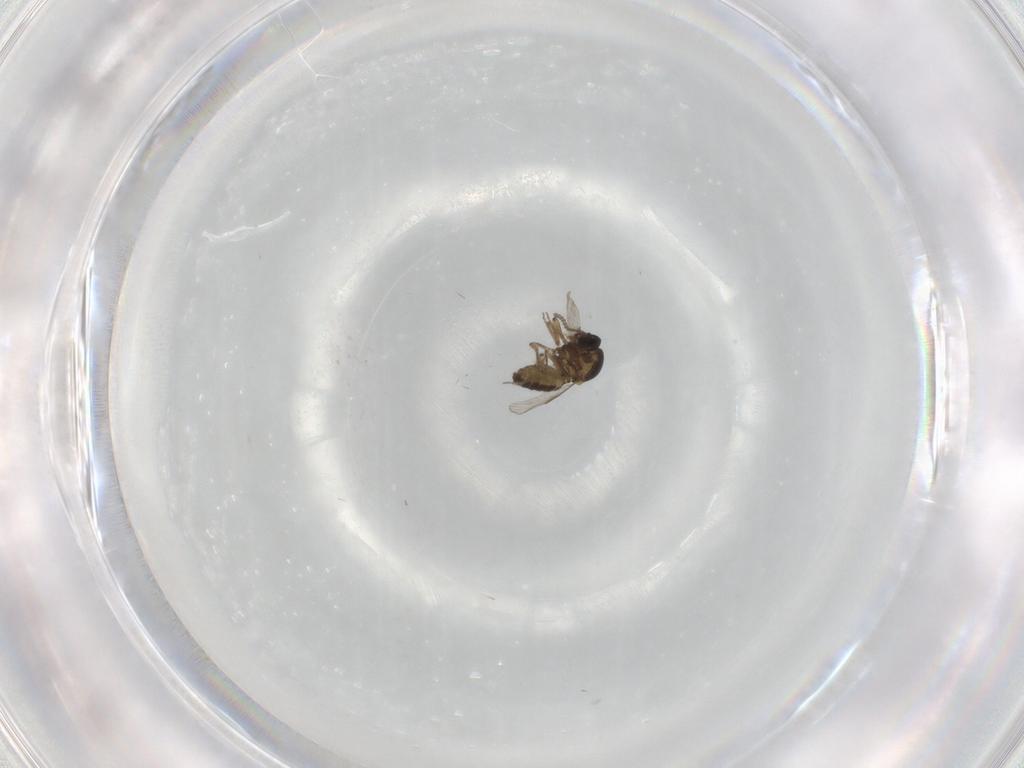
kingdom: Animalia
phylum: Arthropoda
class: Insecta
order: Diptera
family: Ceratopogonidae
